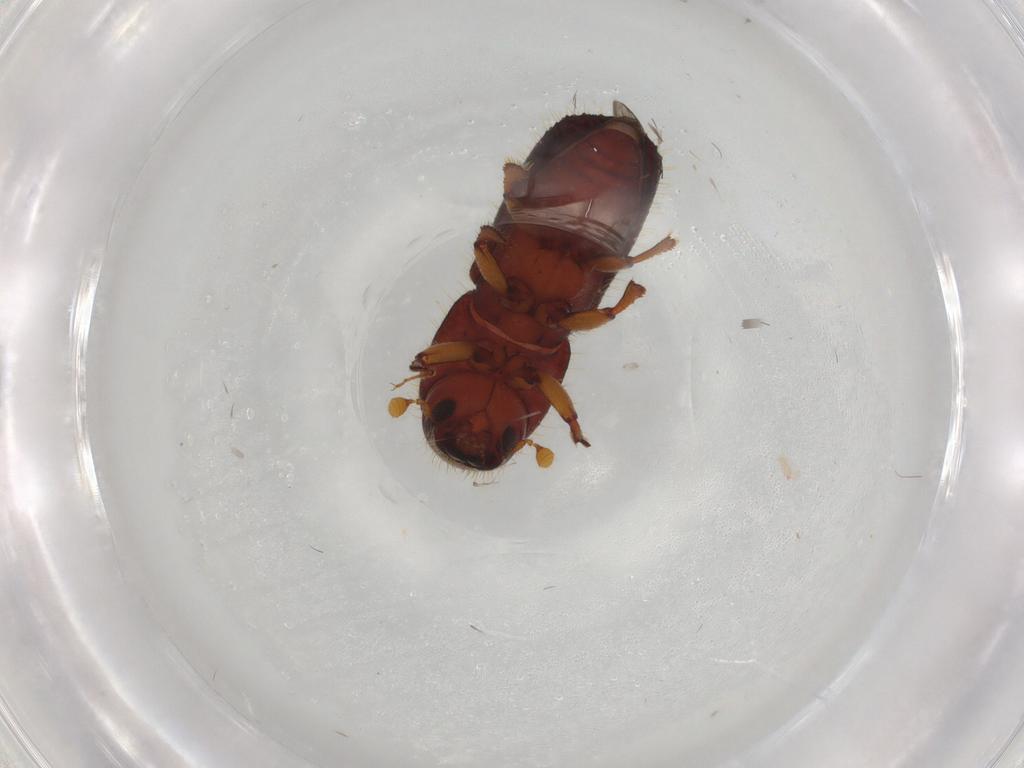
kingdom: Animalia
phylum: Arthropoda
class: Insecta
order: Coleoptera
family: Curculionidae
